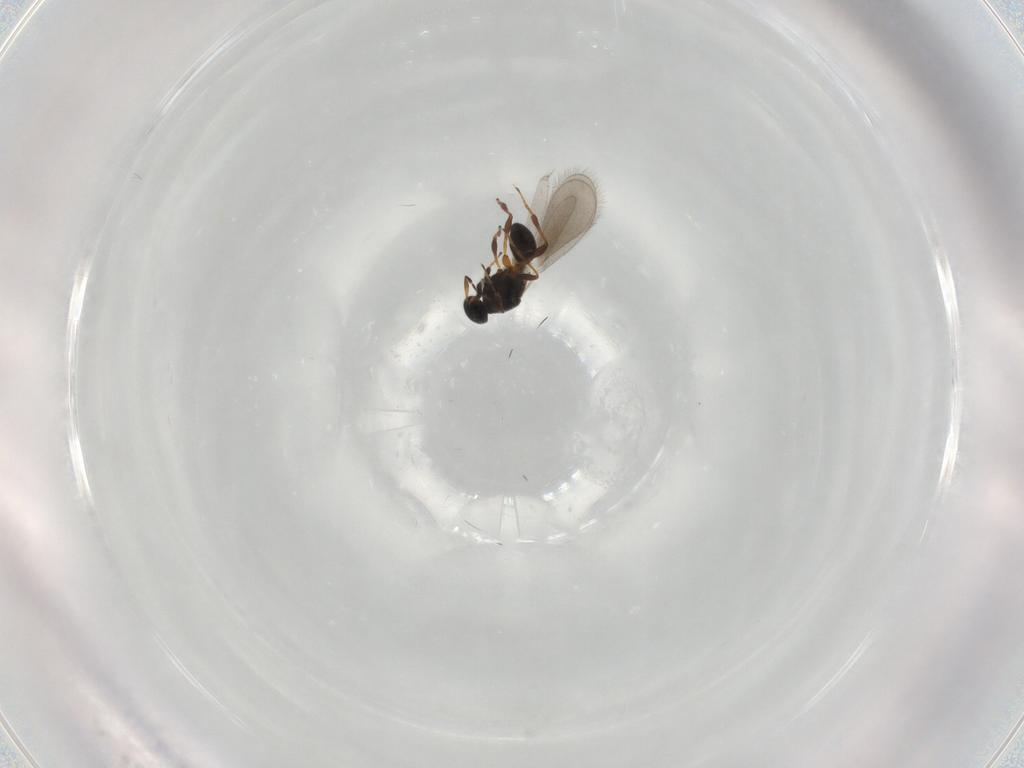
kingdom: Animalia
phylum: Arthropoda
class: Insecta
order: Hymenoptera
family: Platygastridae
